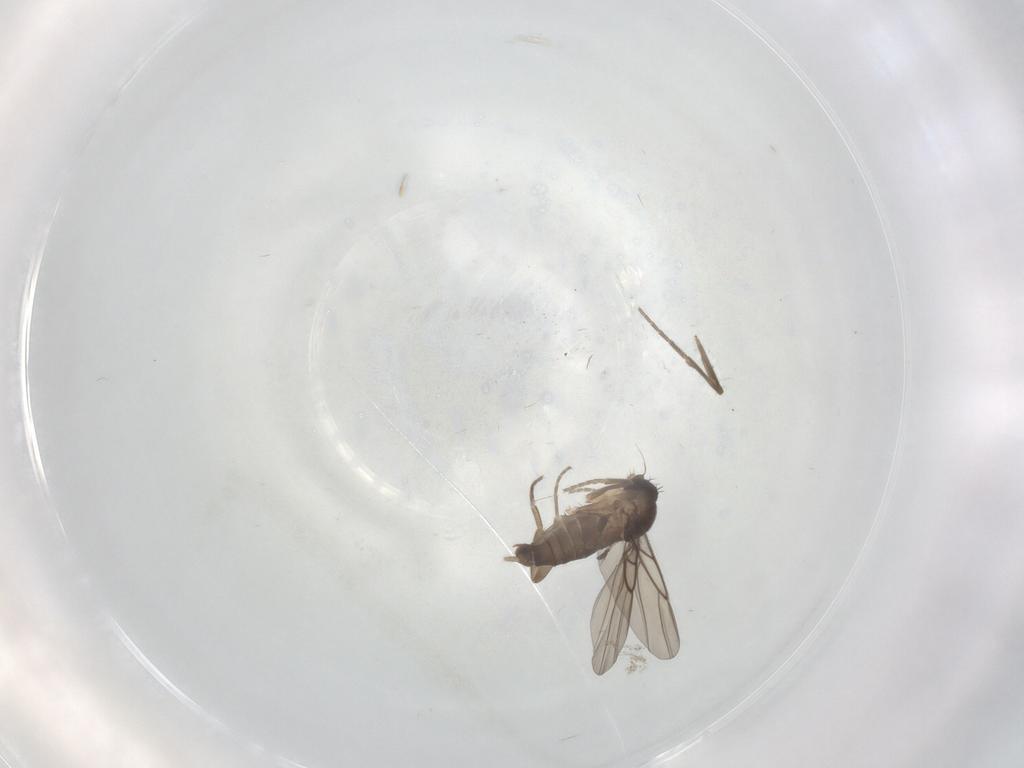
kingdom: Animalia
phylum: Arthropoda
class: Insecta
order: Diptera
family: Phoridae
